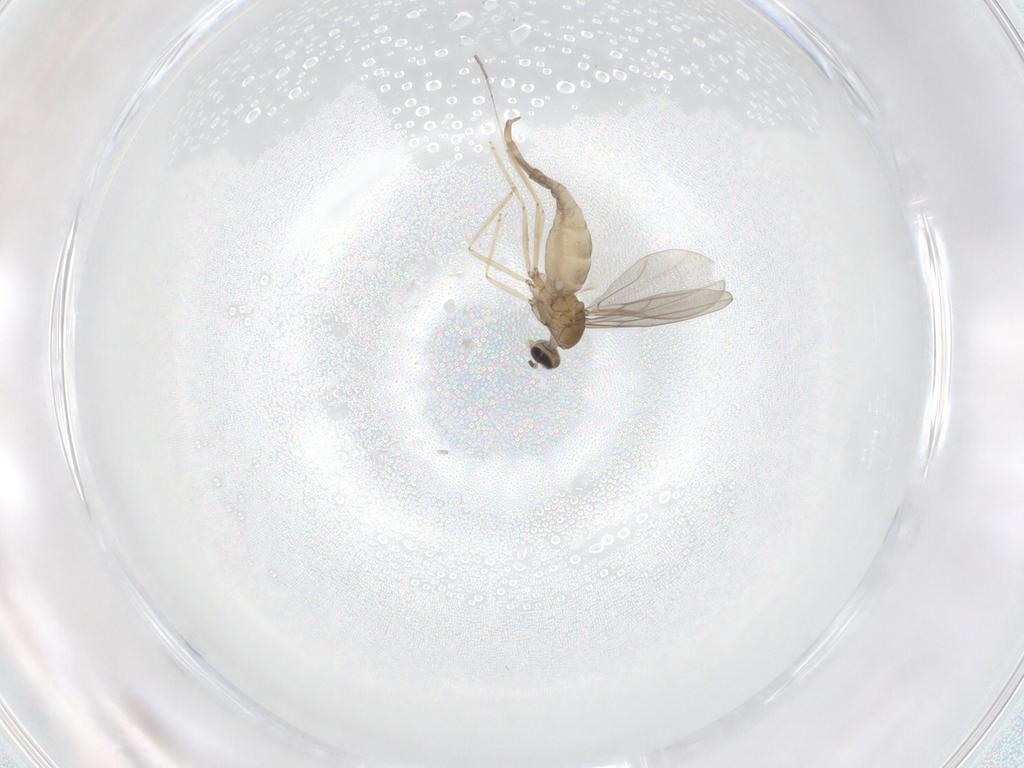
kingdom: Animalia
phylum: Arthropoda
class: Insecta
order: Diptera
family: Cecidomyiidae
